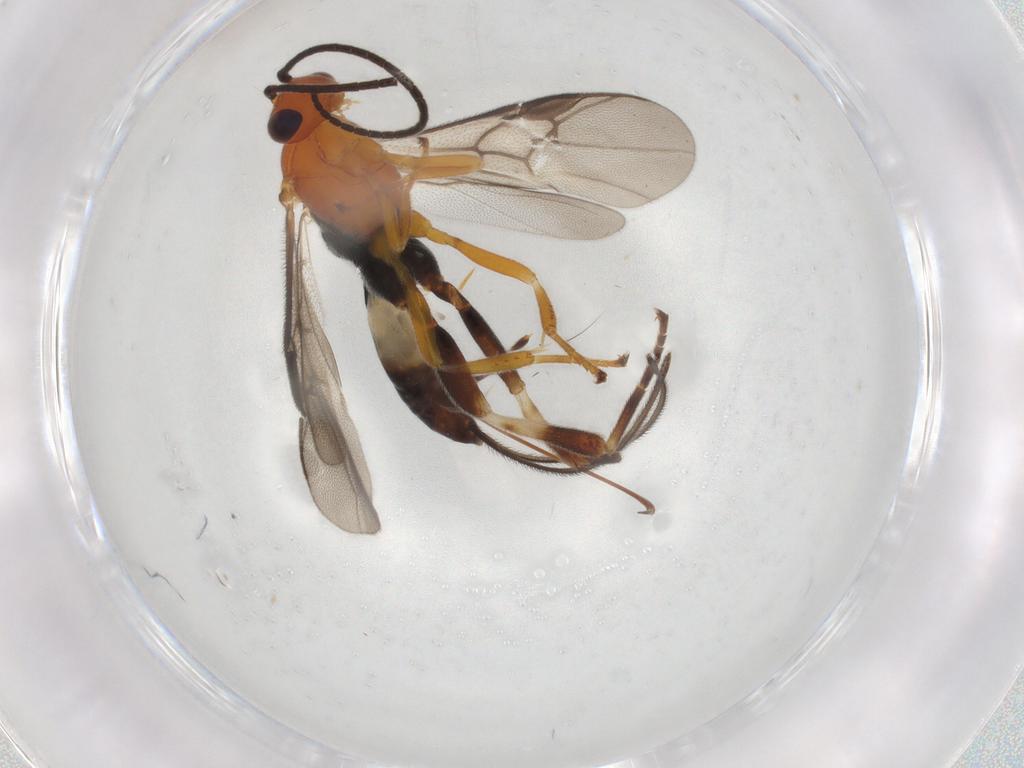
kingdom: Animalia
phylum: Arthropoda
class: Insecta
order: Hymenoptera
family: Braconidae
